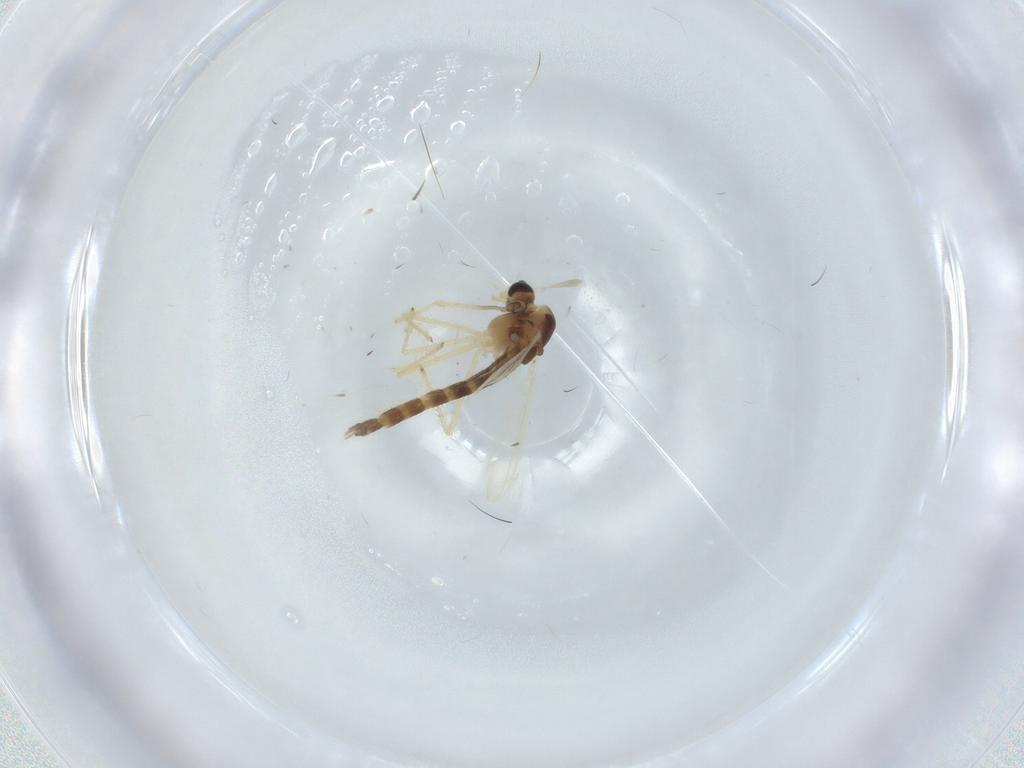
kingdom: Animalia
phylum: Arthropoda
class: Insecta
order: Diptera
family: Chironomidae
